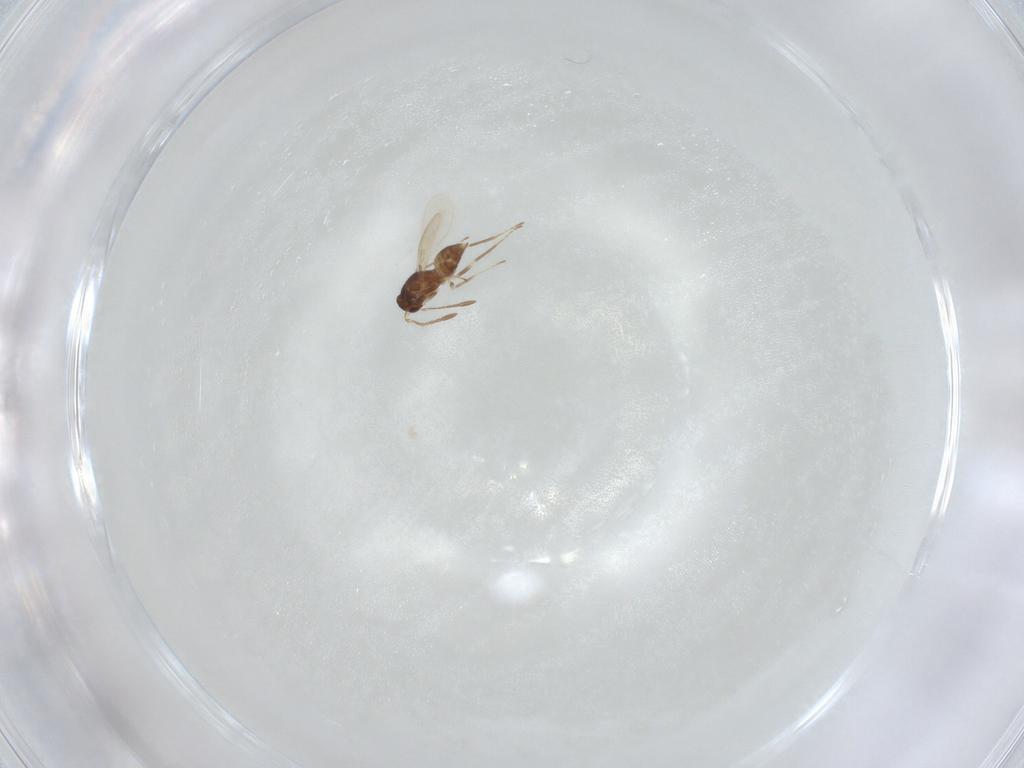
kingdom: Animalia
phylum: Arthropoda
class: Insecta
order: Hymenoptera
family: Mymaridae
